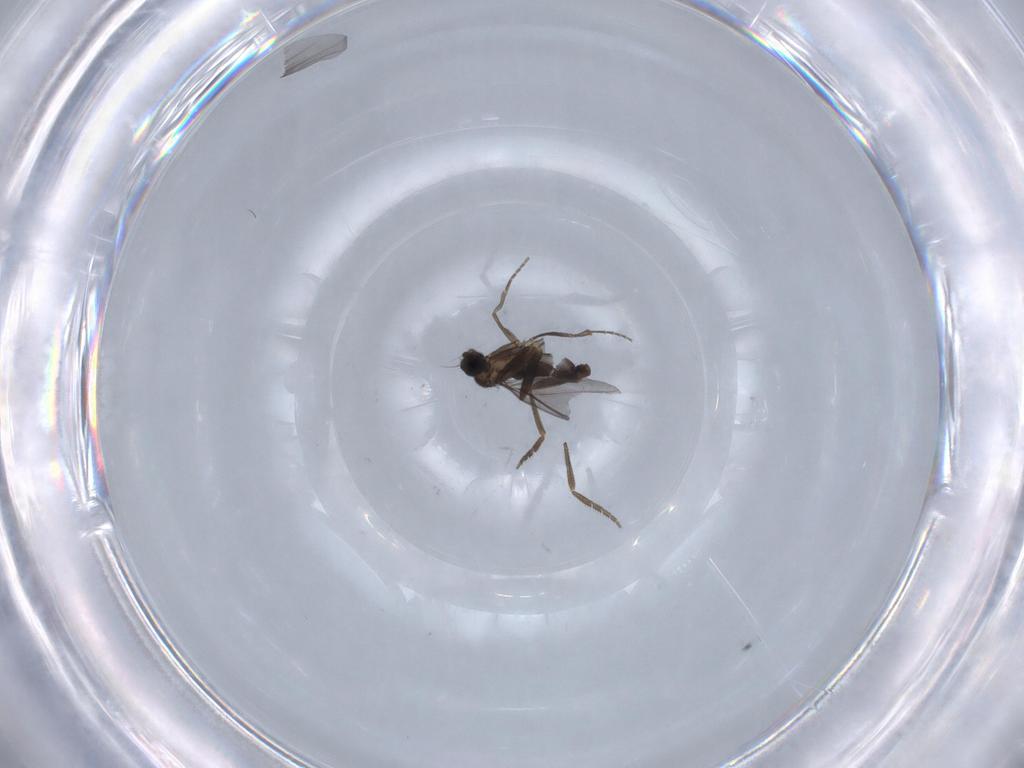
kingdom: Animalia
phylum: Arthropoda
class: Insecta
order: Diptera
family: Phoridae
